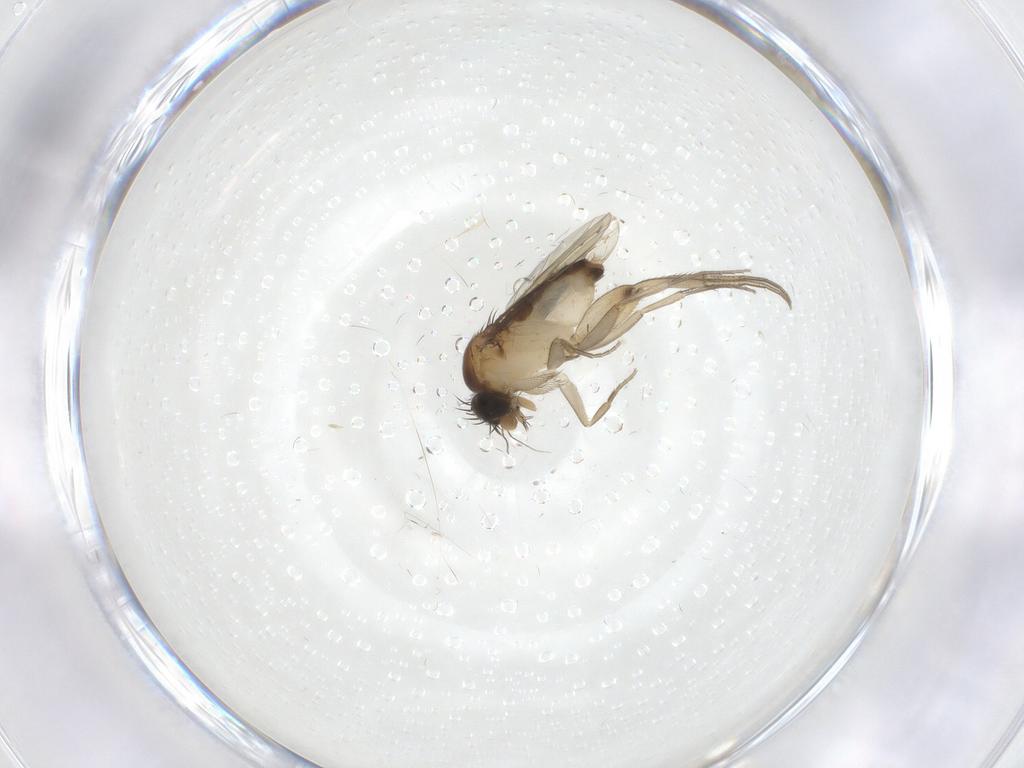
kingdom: Animalia
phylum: Arthropoda
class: Insecta
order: Diptera
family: Phoridae
